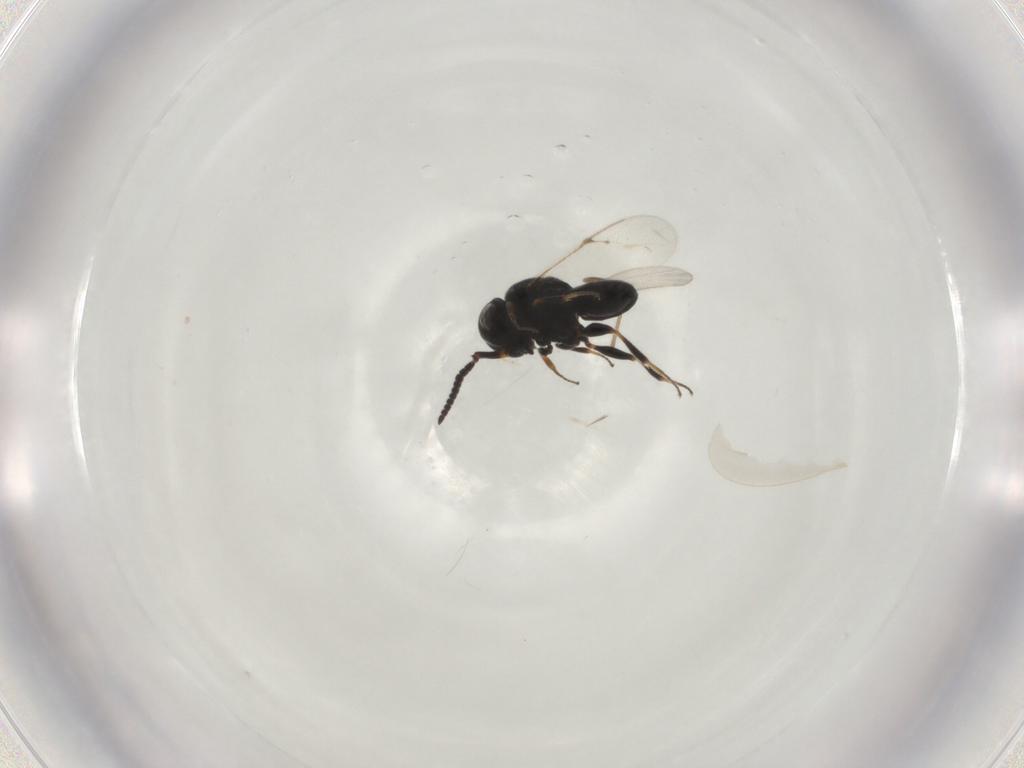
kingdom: Animalia
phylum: Arthropoda
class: Insecta
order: Hymenoptera
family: Scelionidae
